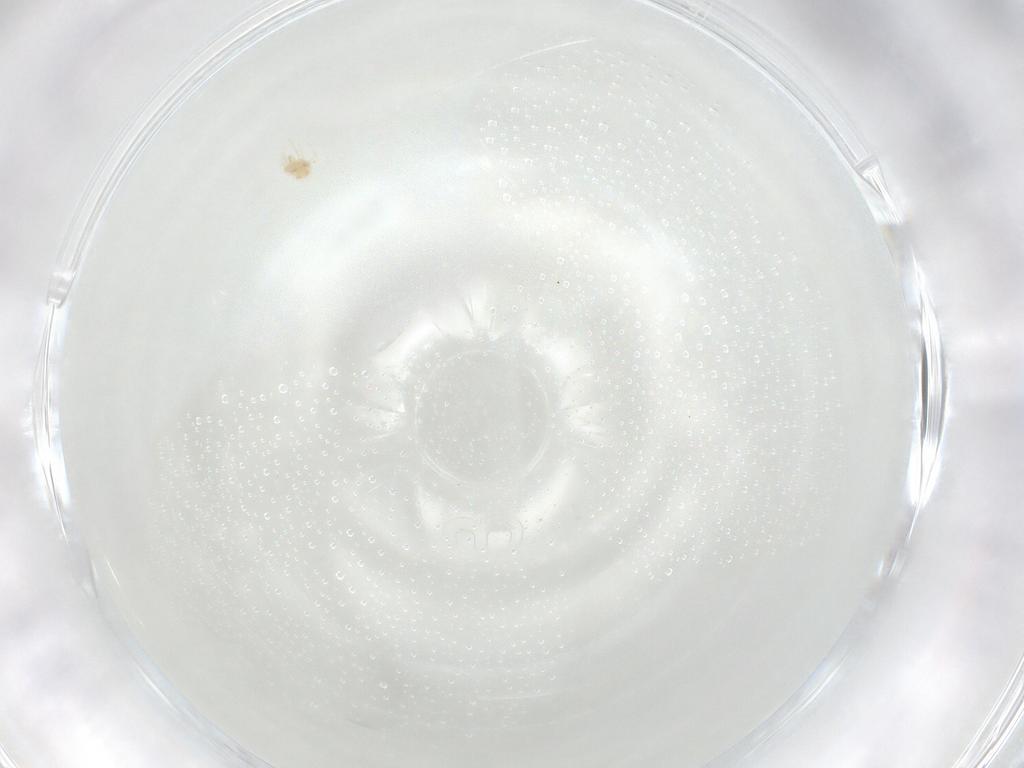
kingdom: Animalia
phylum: Arthropoda
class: Arachnida
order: Trombidiformes
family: Tetranychidae
